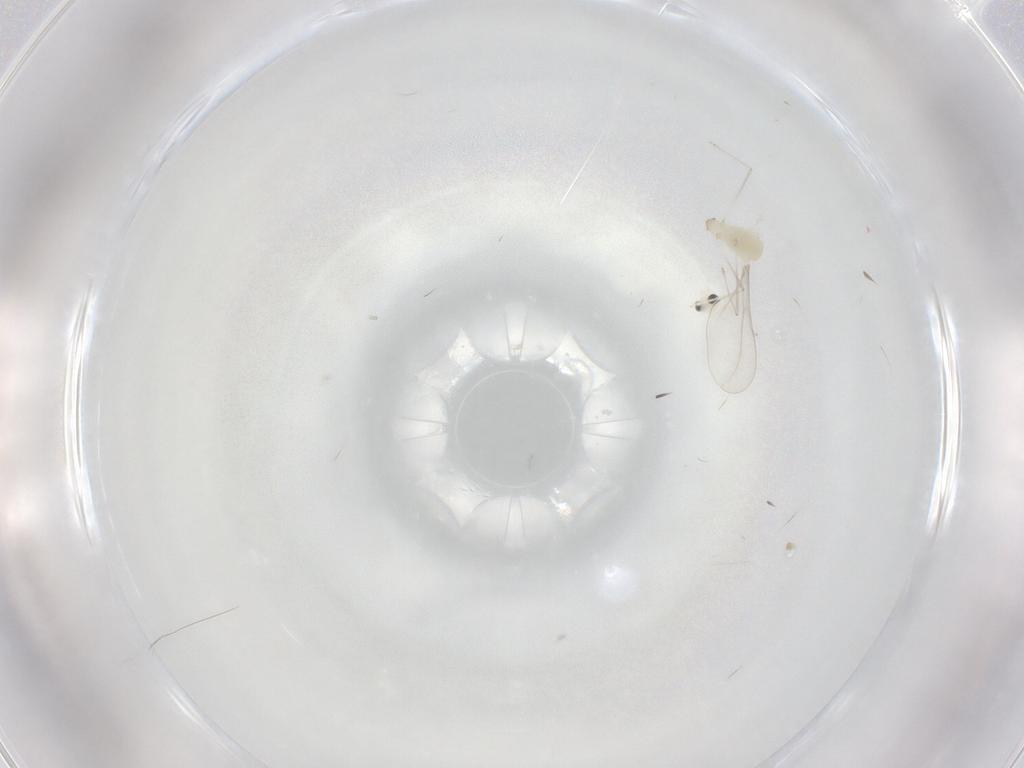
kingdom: Animalia
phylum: Arthropoda
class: Insecta
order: Diptera
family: Cecidomyiidae
